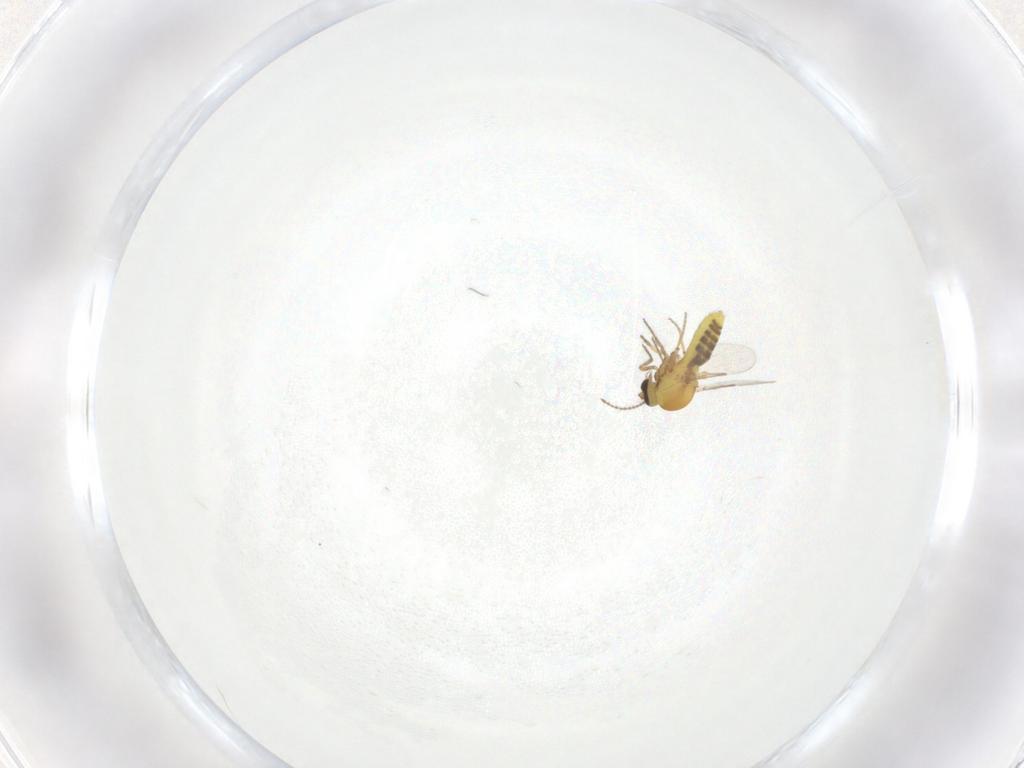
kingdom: Animalia
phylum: Arthropoda
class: Insecta
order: Diptera
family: Ceratopogonidae
